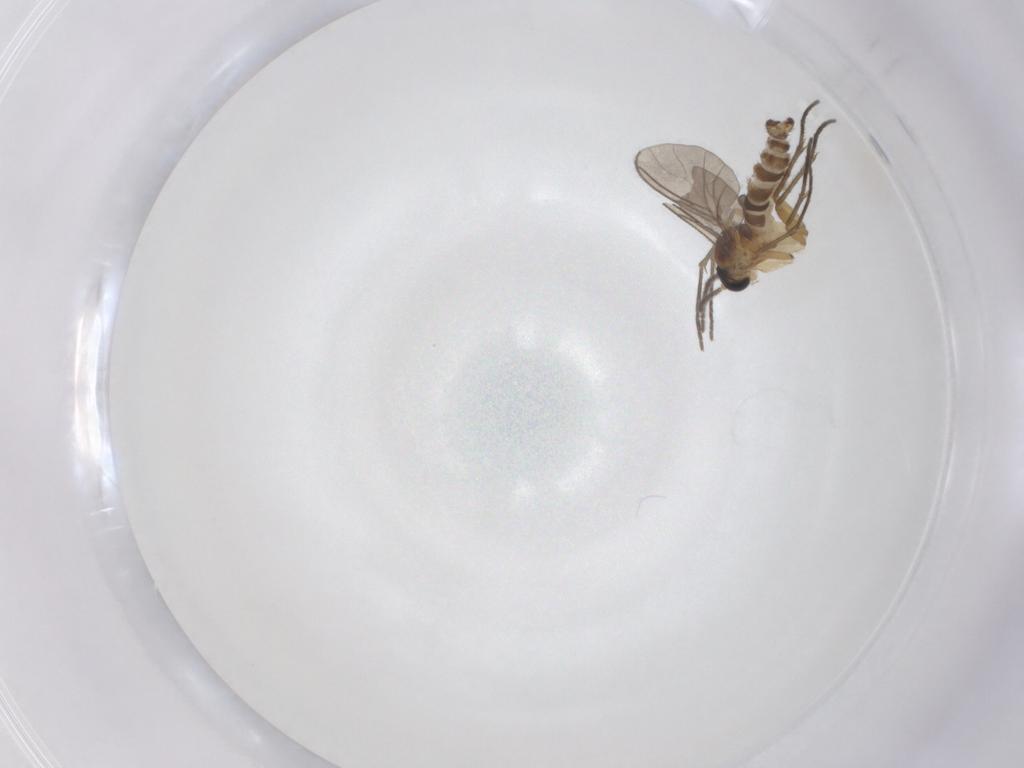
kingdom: Animalia
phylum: Arthropoda
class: Insecta
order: Diptera
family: Sciaridae
